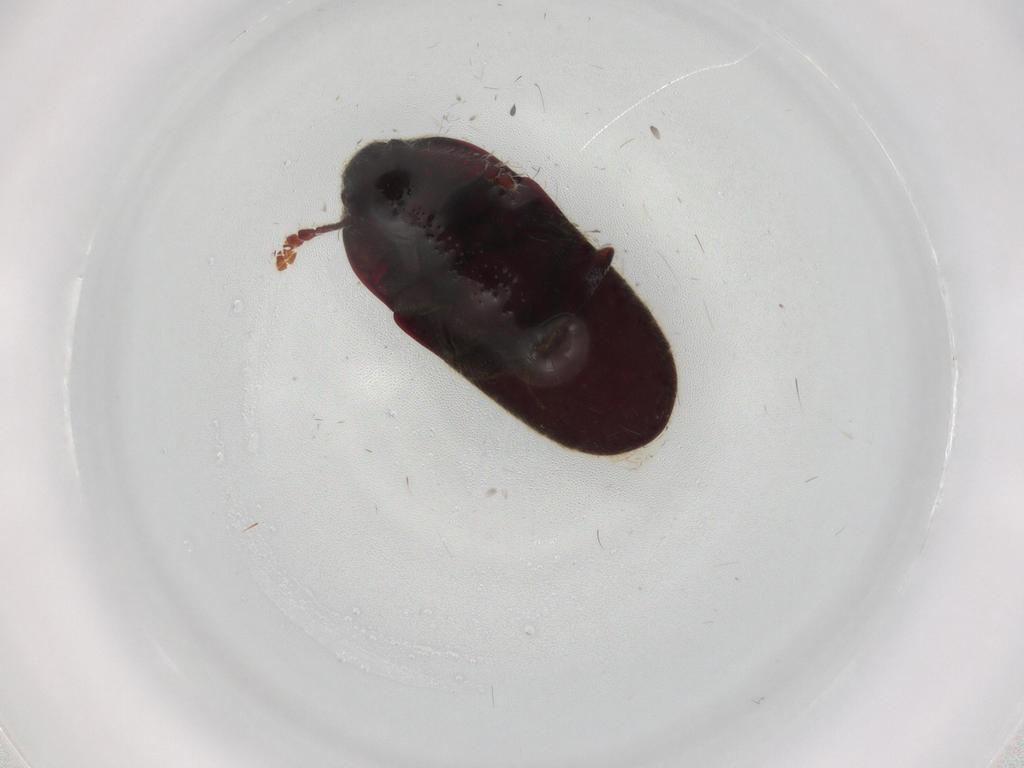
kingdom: Animalia
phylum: Arthropoda
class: Insecta
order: Coleoptera
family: Throscidae
